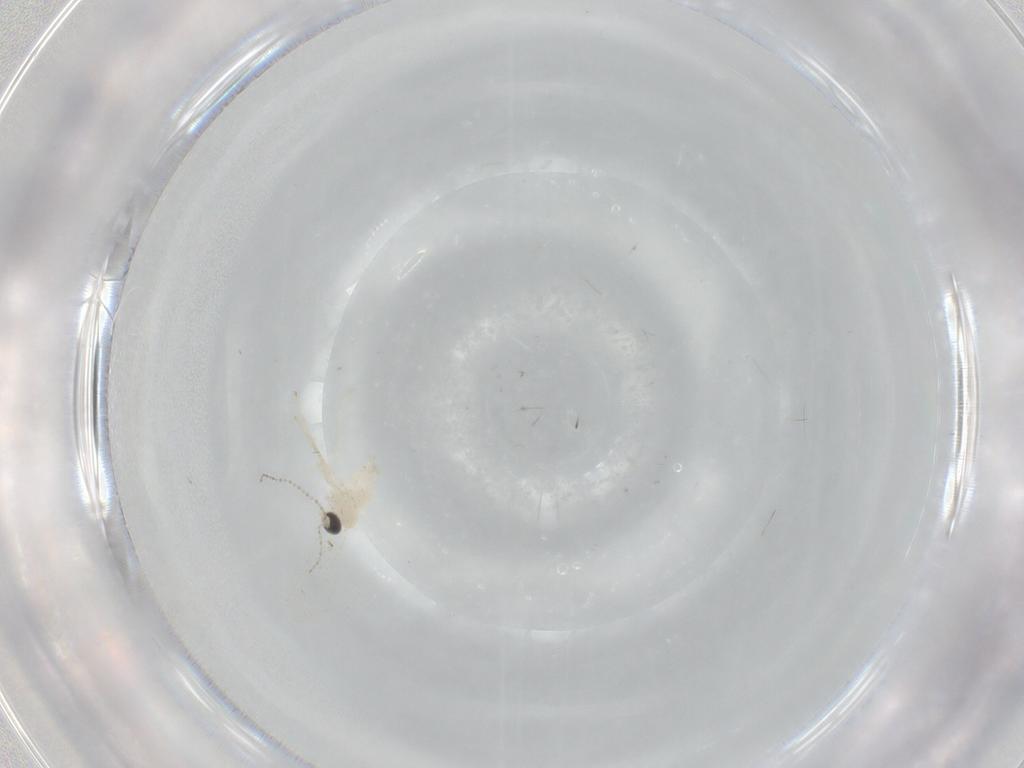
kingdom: Animalia
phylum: Arthropoda
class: Insecta
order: Diptera
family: Cecidomyiidae
